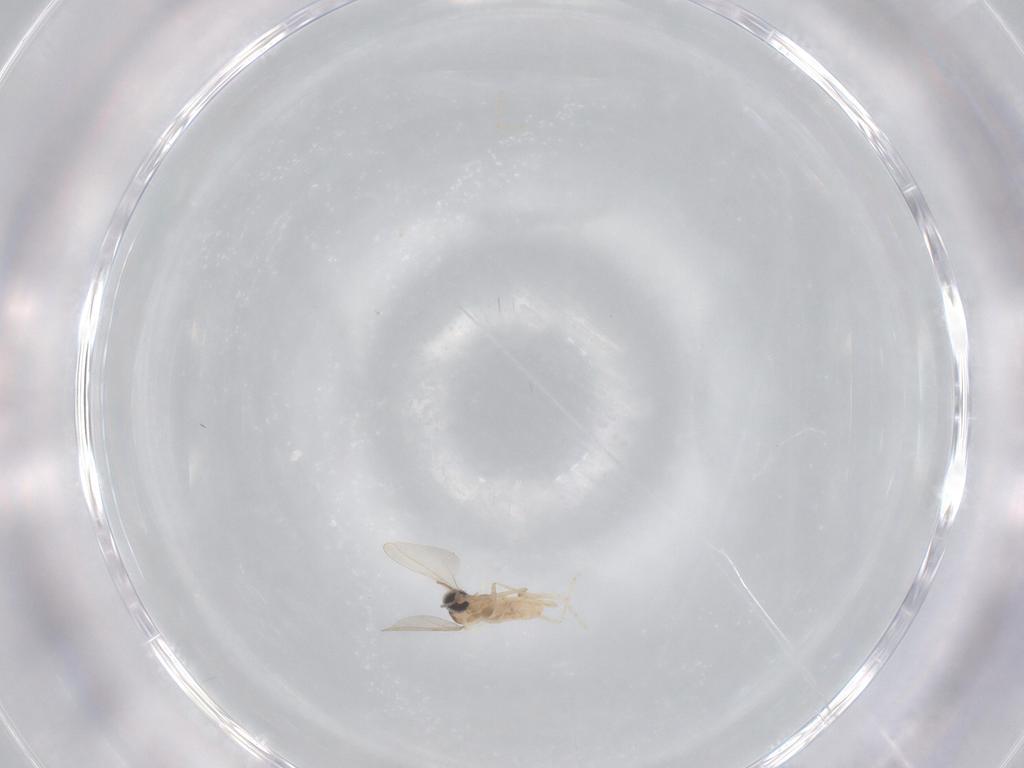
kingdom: Animalia
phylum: Arthropoda
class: Insecta
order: Diptera
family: Cecidomyiidae
